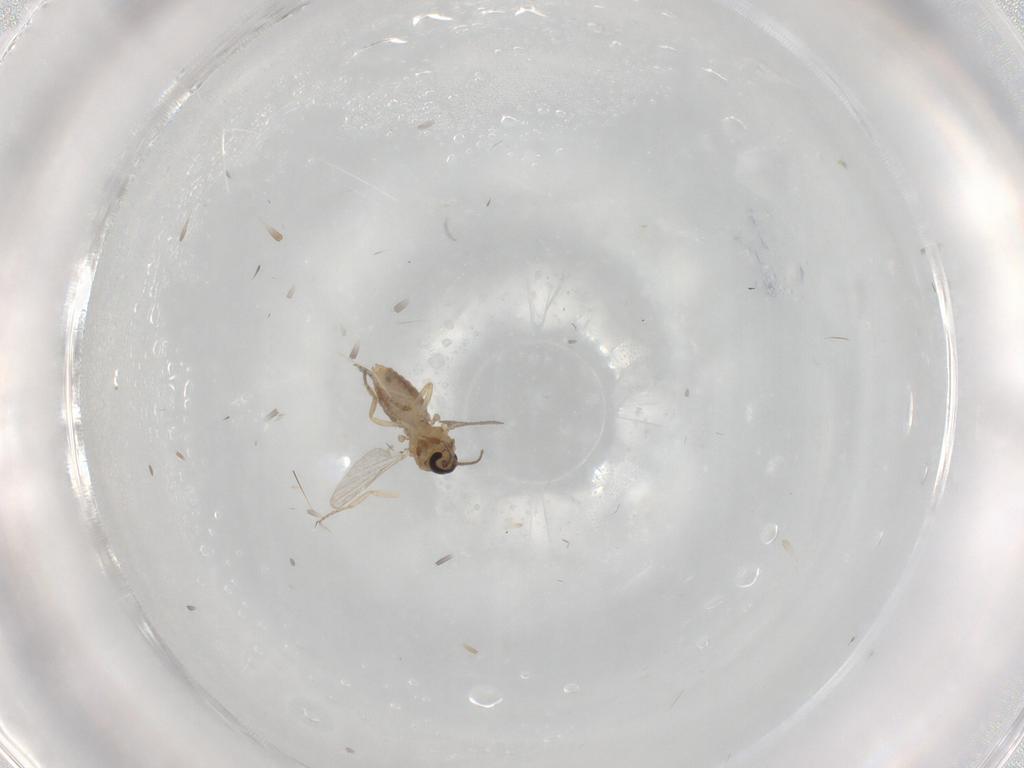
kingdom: Animalia
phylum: Arthropoda
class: Insecta
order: Diptera
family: Ceratopogonidae
